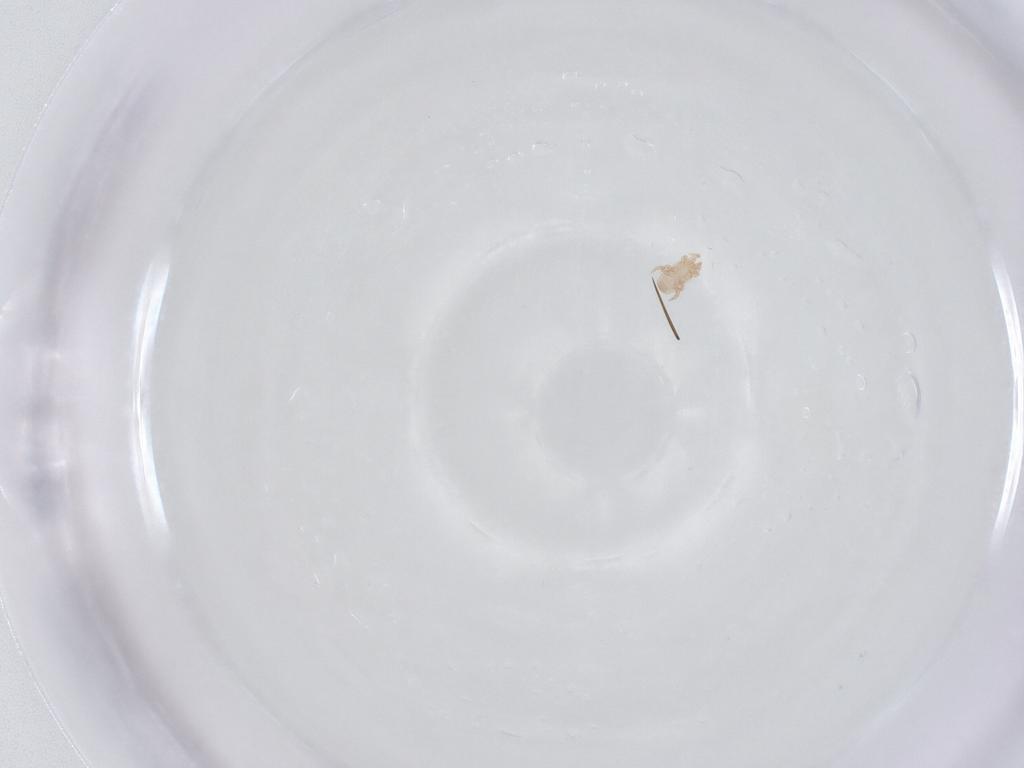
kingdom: Animalia
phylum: Arthropoda
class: Arachnida
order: Mesostigmata
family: Digamasellidae
